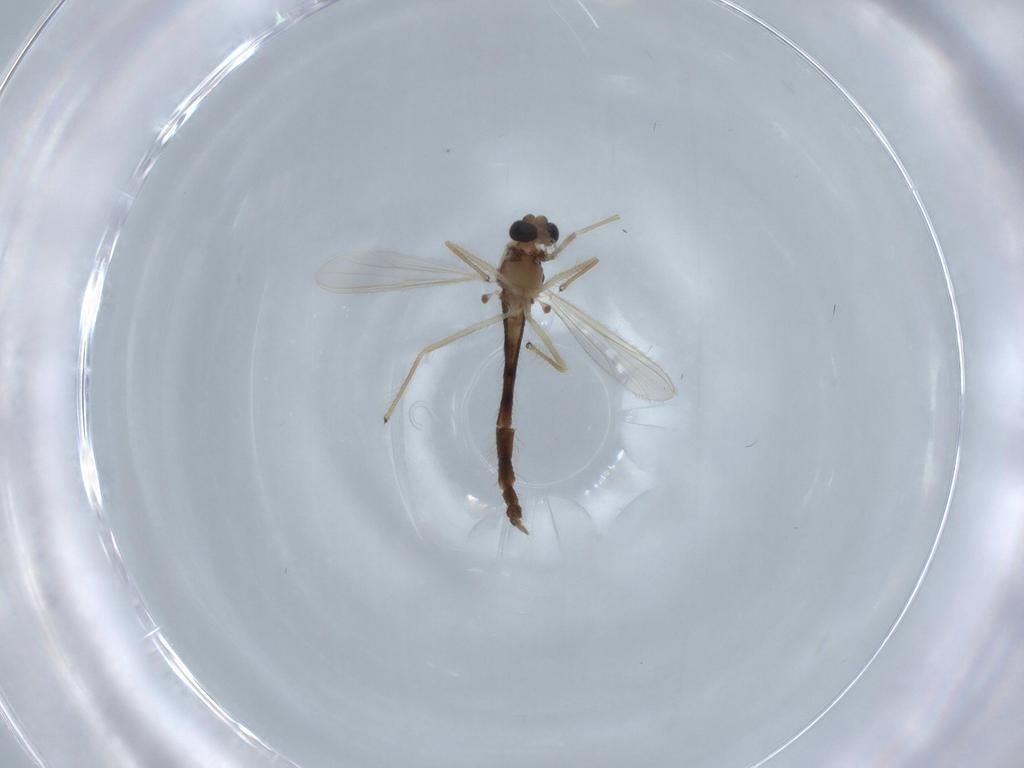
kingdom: Animalia
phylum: Arthropoda
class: Insecta
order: Diptera
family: Chironomidae
